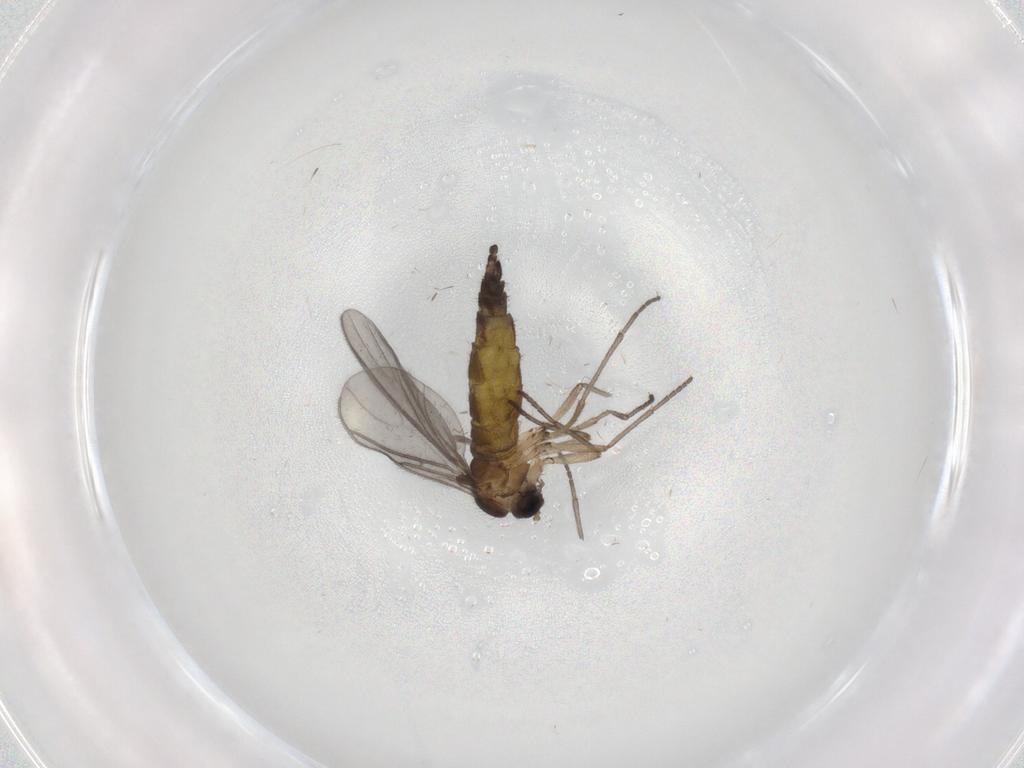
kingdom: Animalia
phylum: Arthropoda
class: Insecta
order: Diptera
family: Sciaridae
